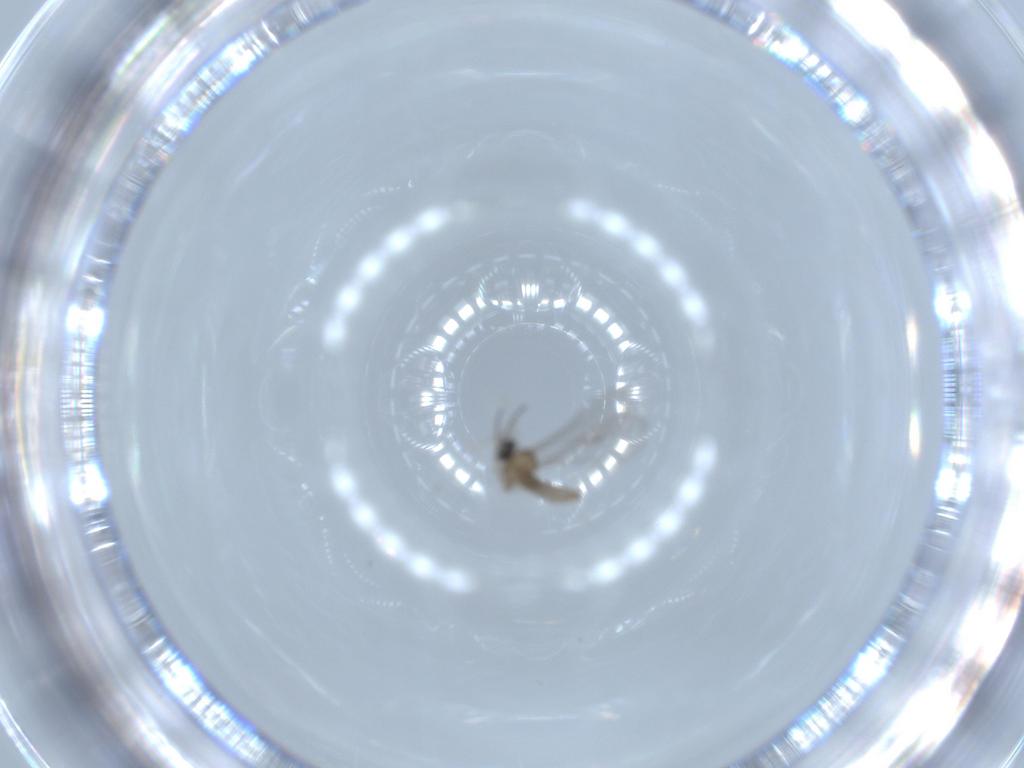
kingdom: Animalia
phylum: Arthropoda
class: Insecta
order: Diptera
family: Cecidomyiidae
